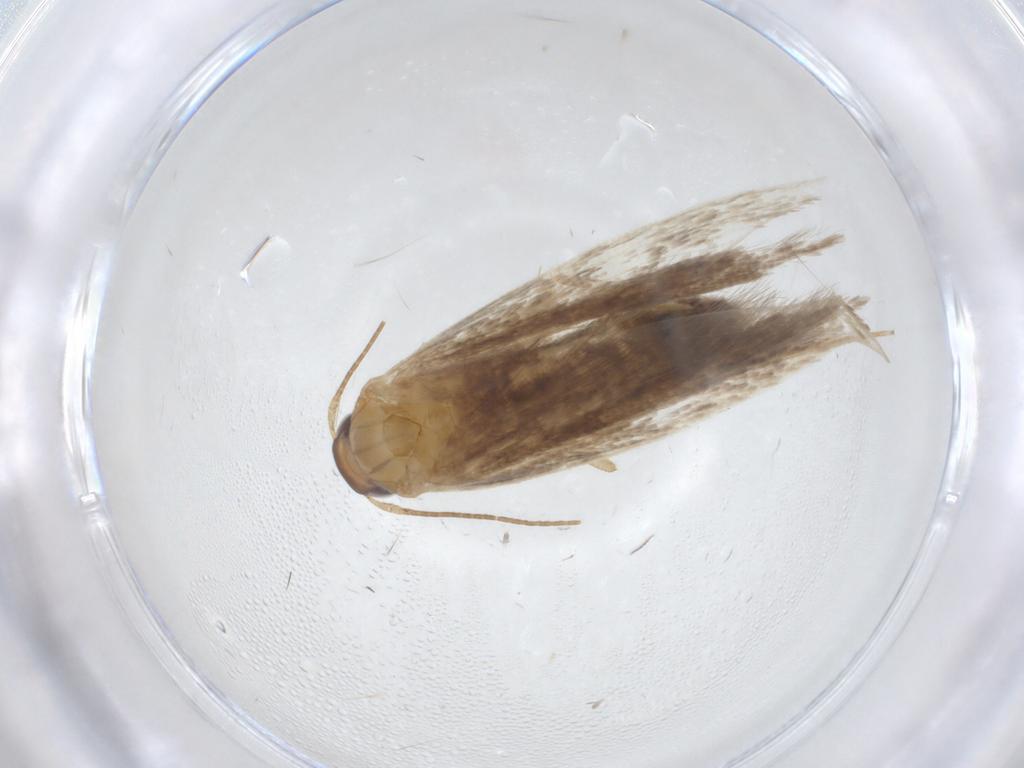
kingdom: Animalia
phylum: Arthropoda
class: Insecta
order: Lepidoptera
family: Gelechiidae
